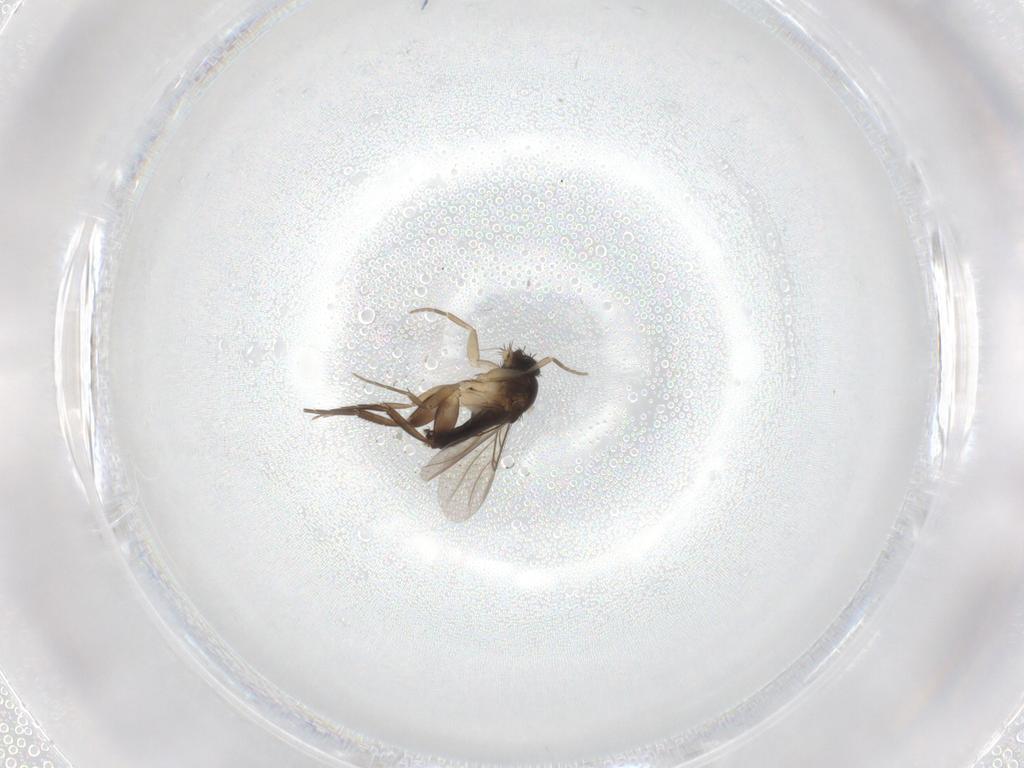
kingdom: Animalia
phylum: Arthropoda
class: Insecta
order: Diptera
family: Ceratopogonidae
